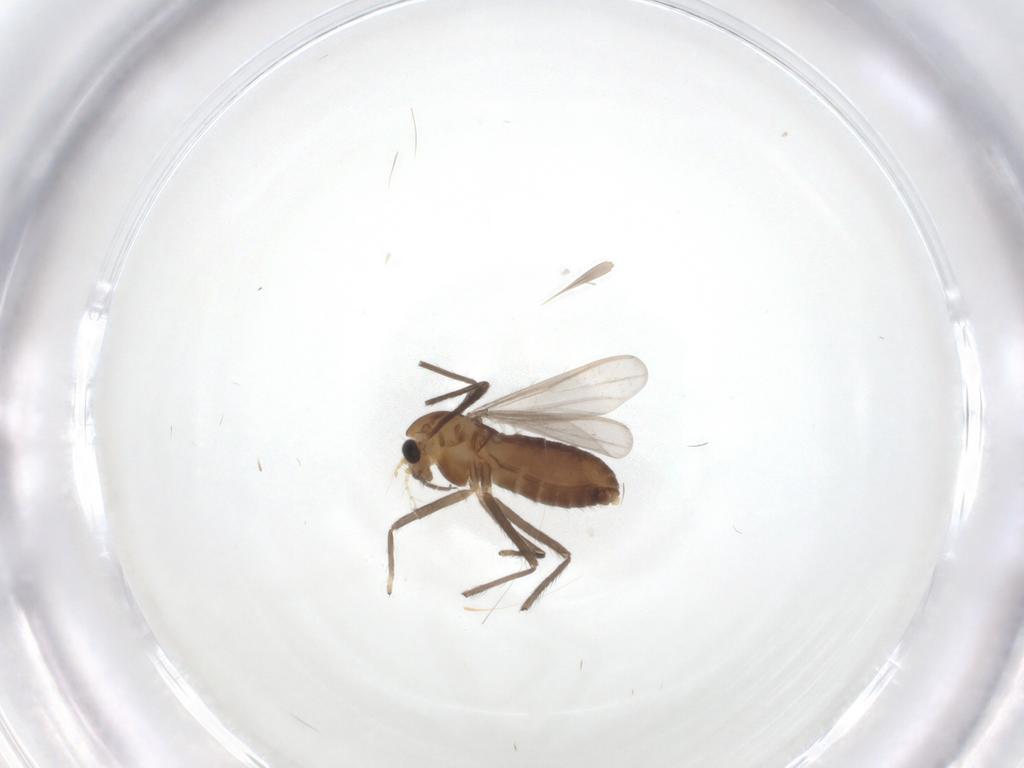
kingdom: Animalia
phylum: Arthropoda
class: Insecta
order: Diptera
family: Chironomidae
